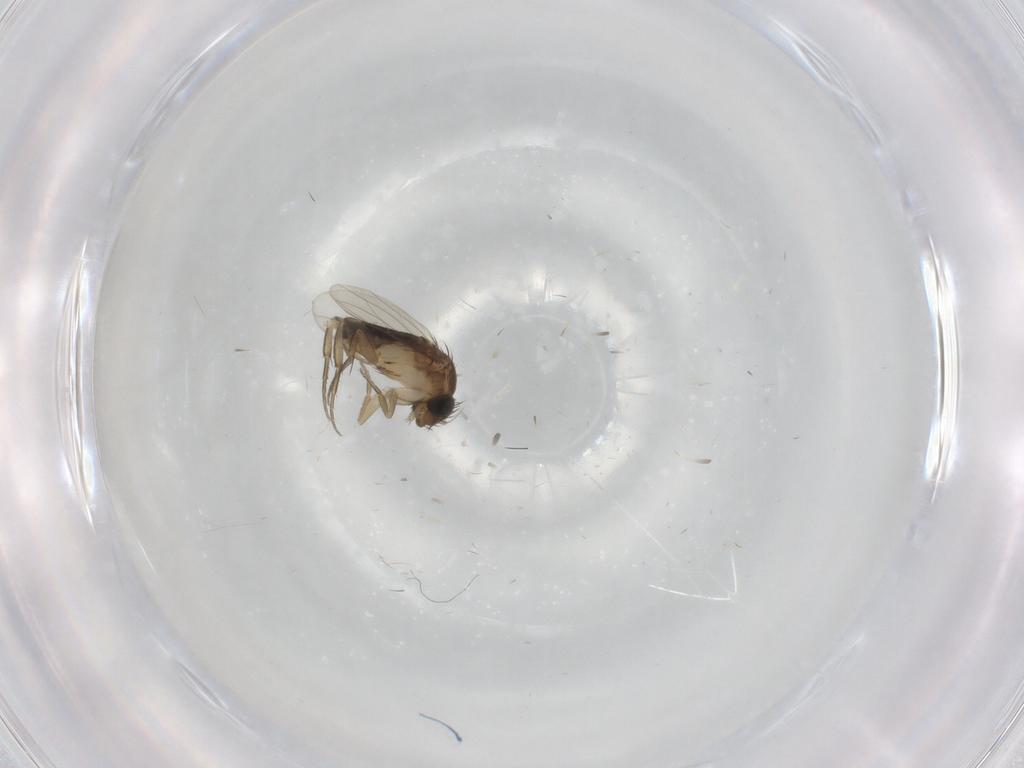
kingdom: Animalia
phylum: Arthropoda
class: Insecta
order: Diptera
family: Phoridae
